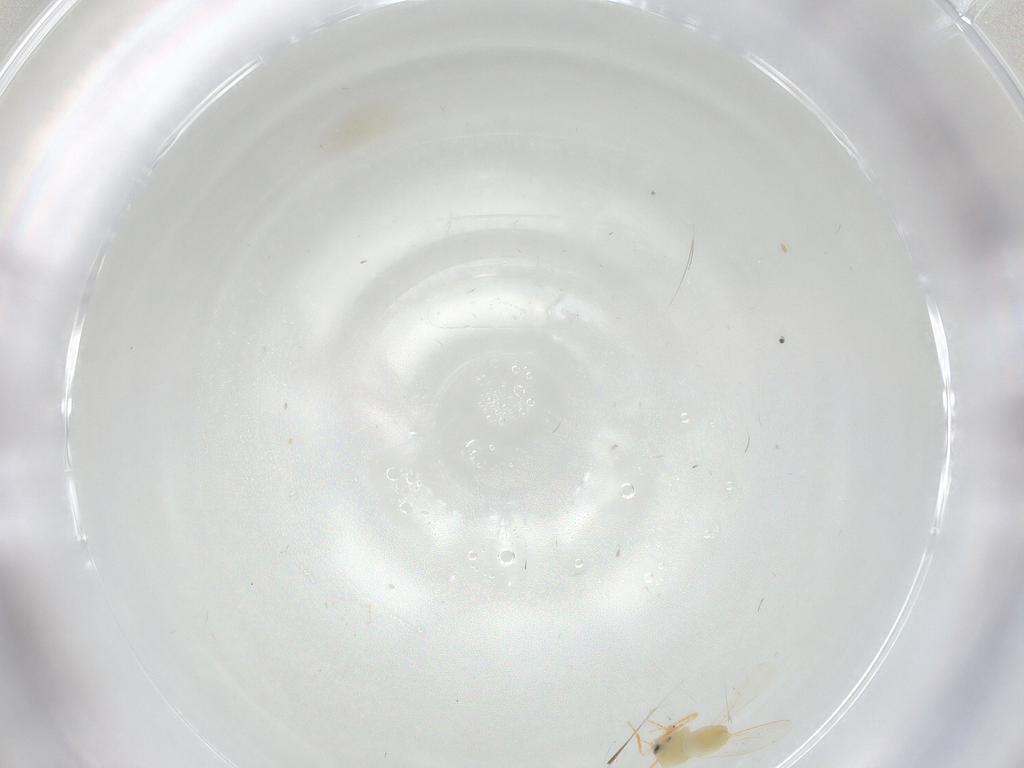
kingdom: Animalia
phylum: Arthropoda
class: Insecta
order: Hemiptera
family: Aleyrodidae
